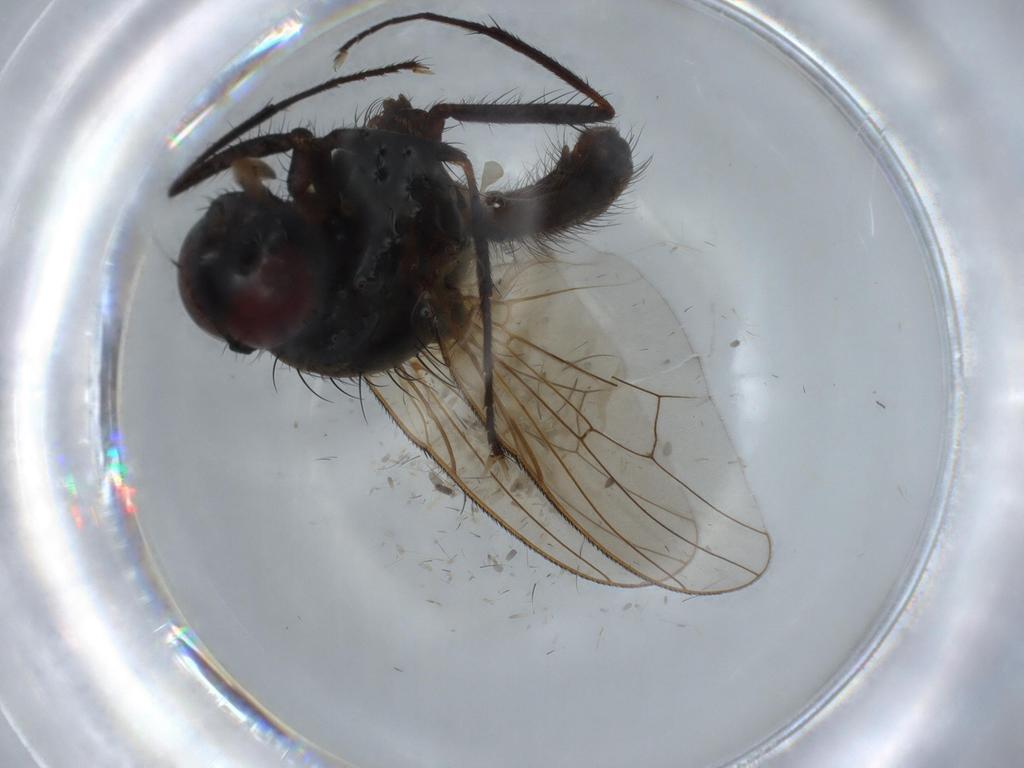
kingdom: Animalia
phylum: Arthropoda
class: Insecta
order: Diptera
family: Anthomyiidae
